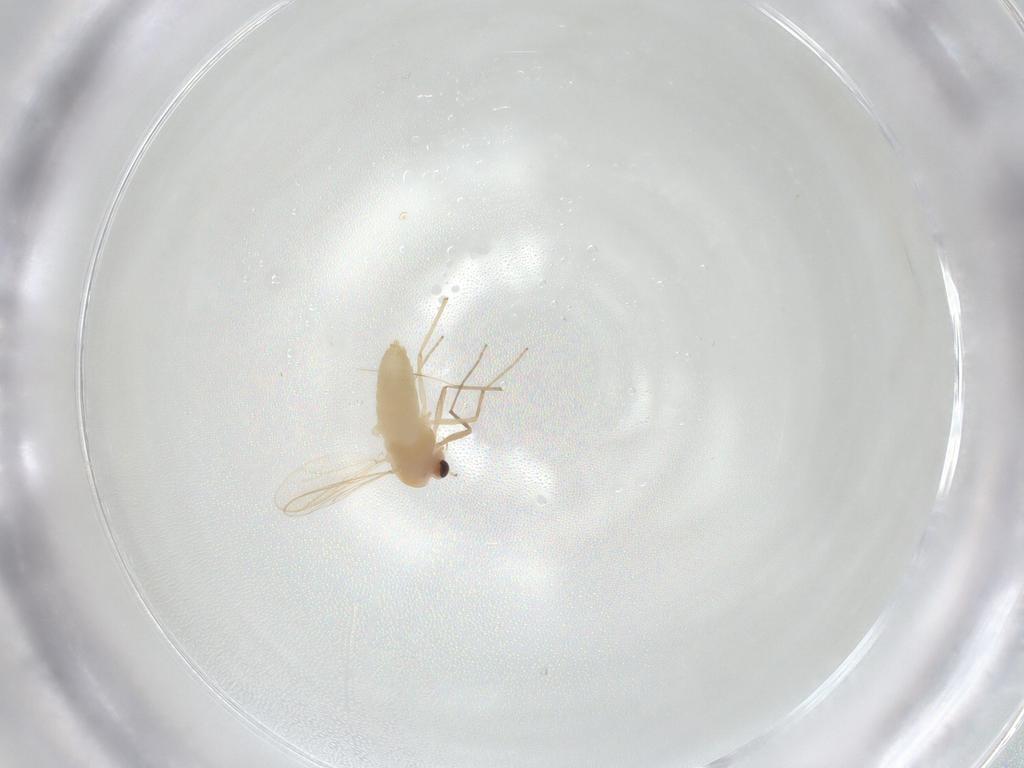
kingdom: Animalia
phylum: Arthropoda
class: Insecta
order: Diptera
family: Chironomidae
